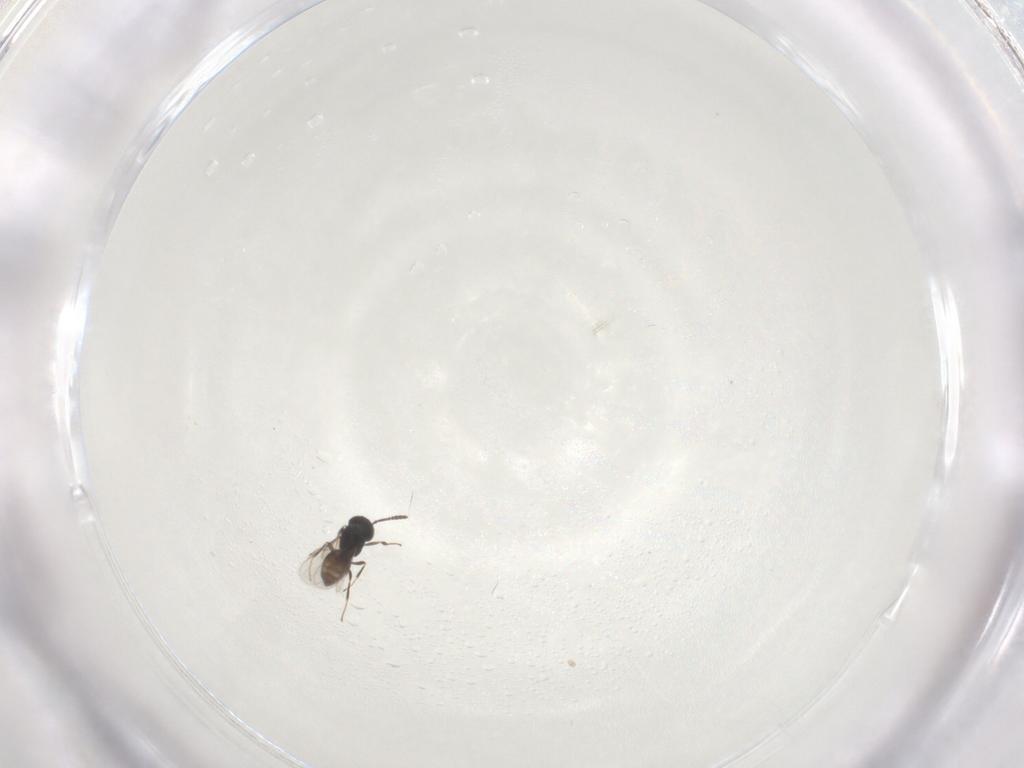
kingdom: Animalia
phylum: Arthropoda
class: Insecta
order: Hymenoptera
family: Scelionidae
